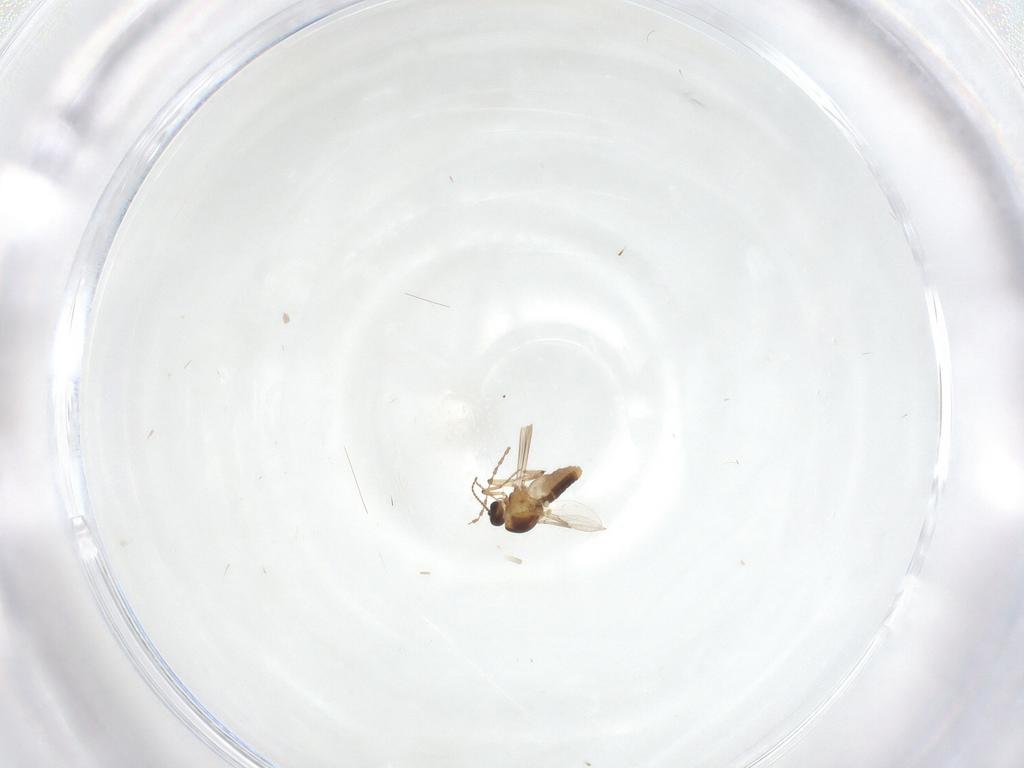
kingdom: Animalia
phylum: Arthropoda
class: Insecta
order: Diptera
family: Ceratopogonidae
